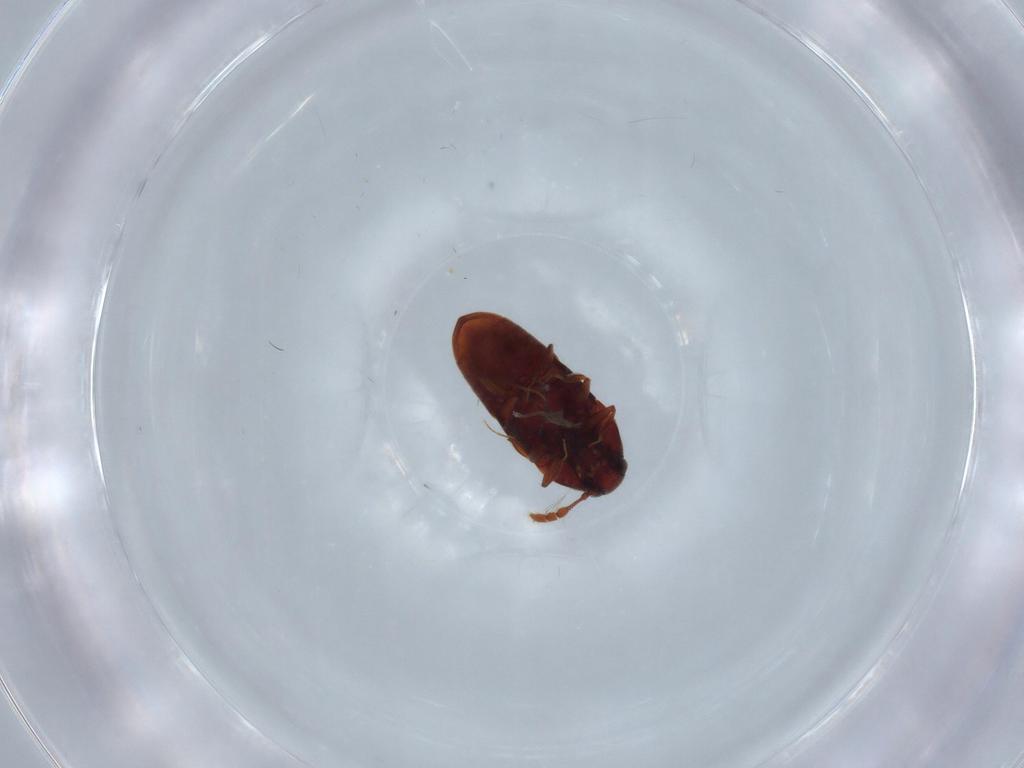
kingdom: Animalia
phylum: Arthropoda
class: Insecta
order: Coleoptera
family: Throscidae
